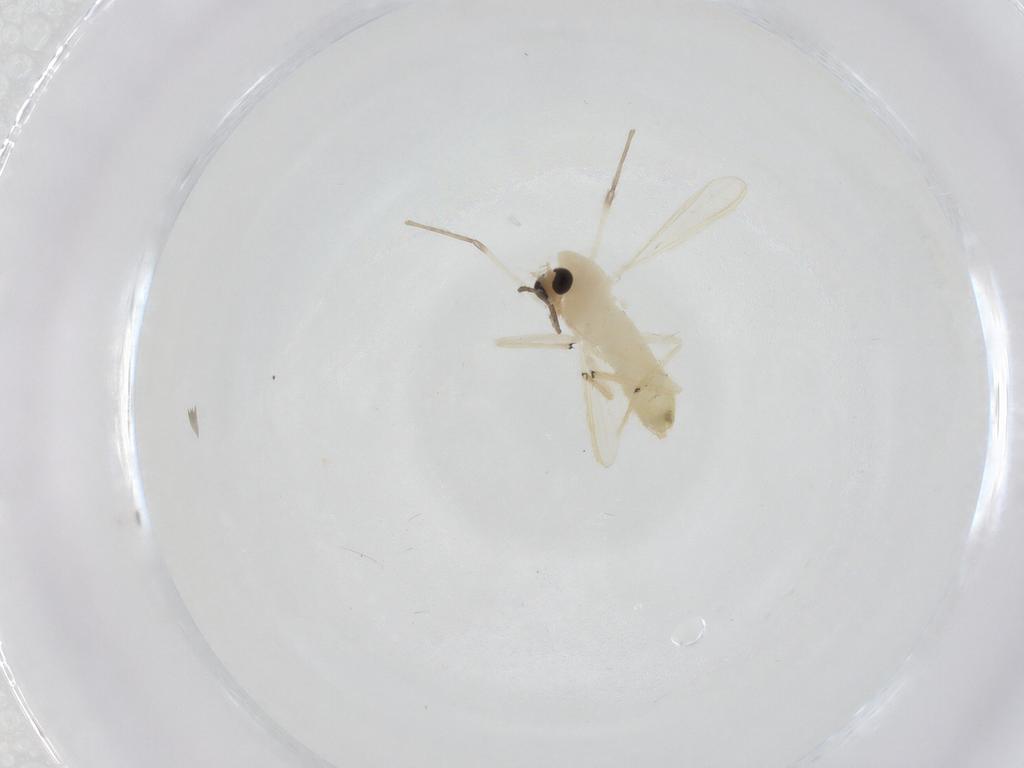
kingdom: Animalia
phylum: Arthropoda
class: Insecta
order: Diptera
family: Chironomidae
